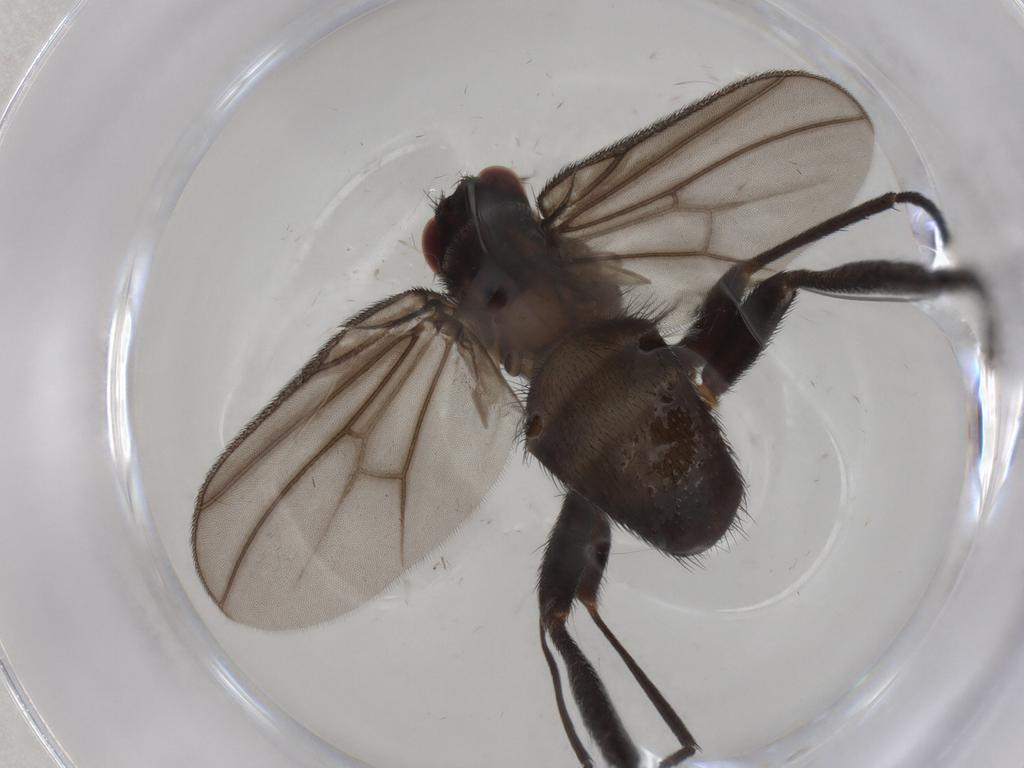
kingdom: Animalia
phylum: Arthropoda
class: Insecta
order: Diptera
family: Calliphoridae
